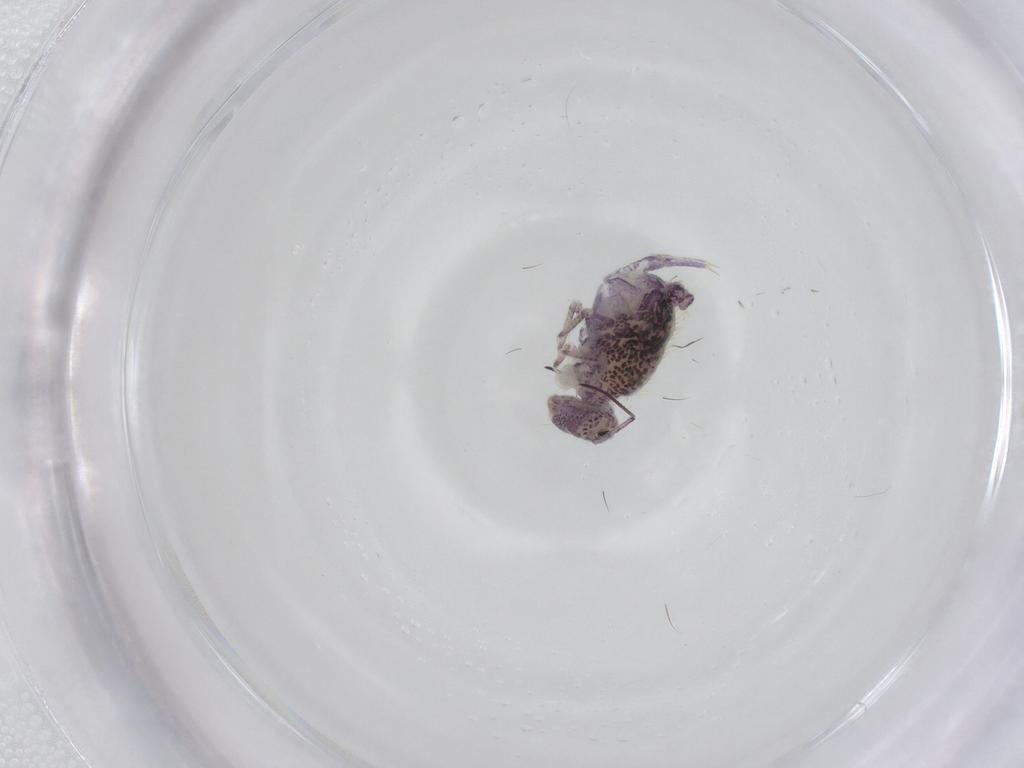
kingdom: Animalia
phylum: Arthropoda
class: Collembola
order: Symphypleona
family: Sminthuridae
